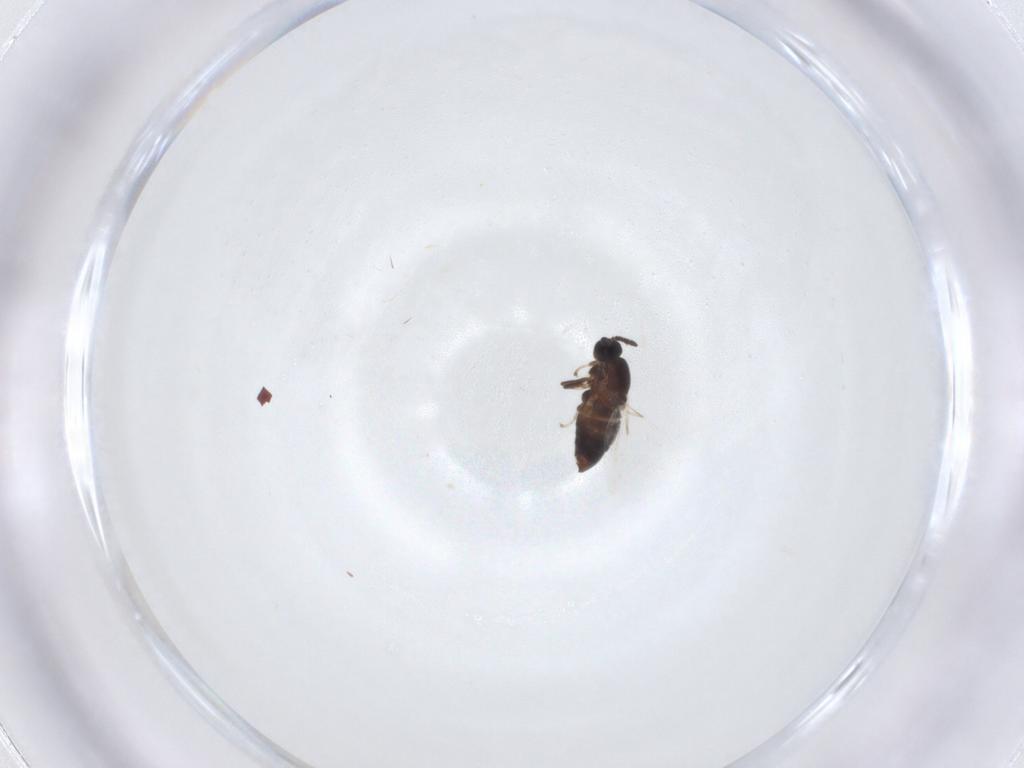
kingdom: Animalia
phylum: Arthropoda
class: Insecta
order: Diptera
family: Scatopsidae
